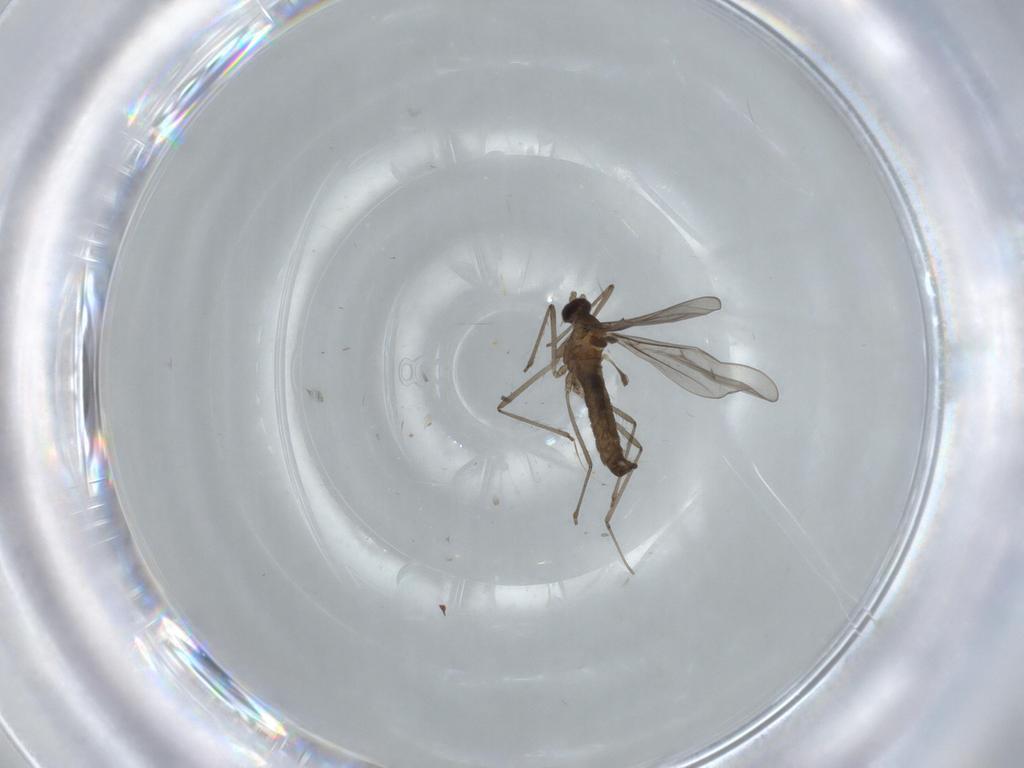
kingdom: Animalia
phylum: Arthropoda
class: Insecta
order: Diptera
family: Cecidomyiidae
